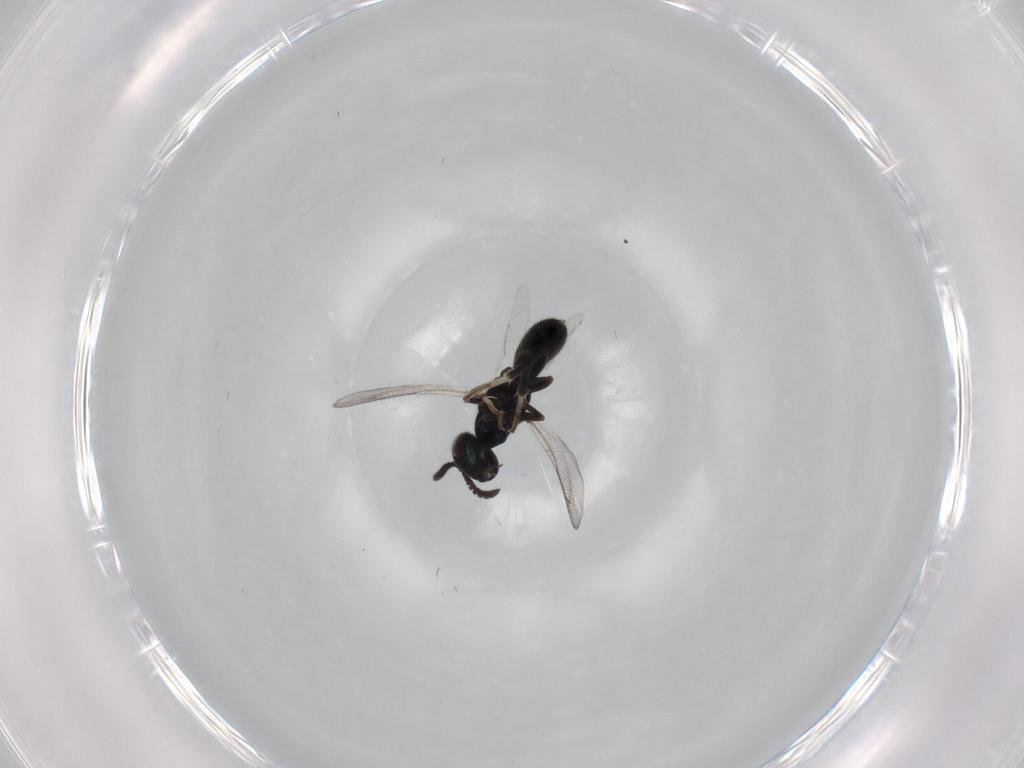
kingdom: Animalia
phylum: Arthropoda
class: Insecta
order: Hymenoptera
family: Cleonyminae
